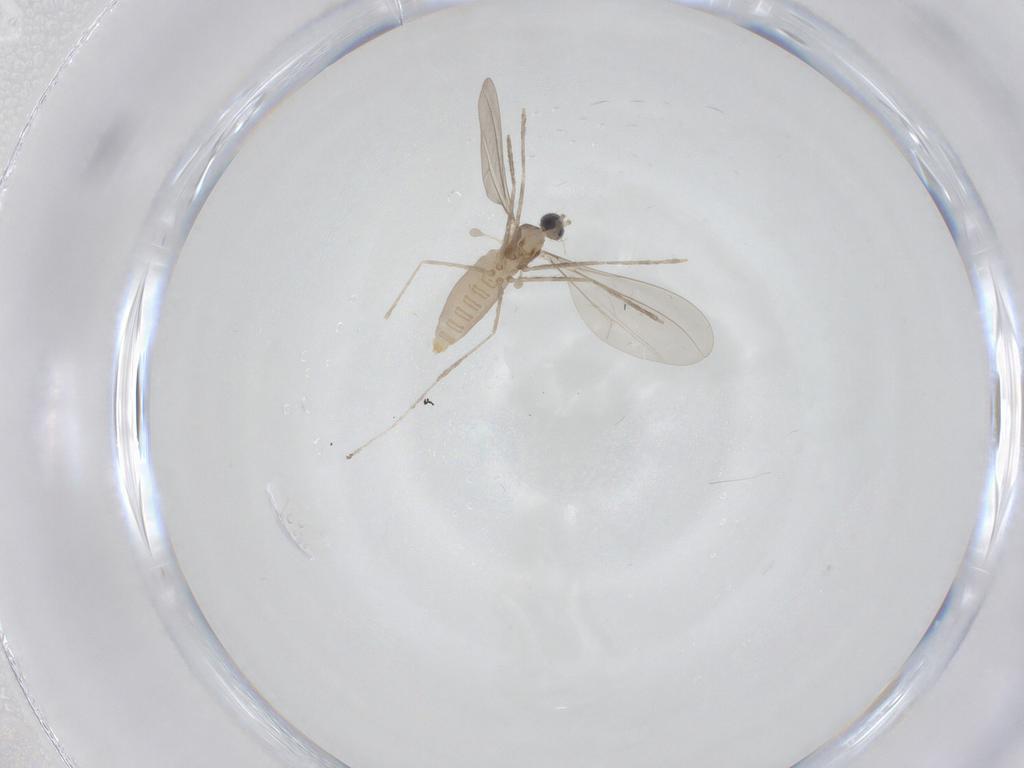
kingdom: Animalia
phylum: Arthropoda
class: Insecta
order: Diptera
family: Cecidomyiidae
